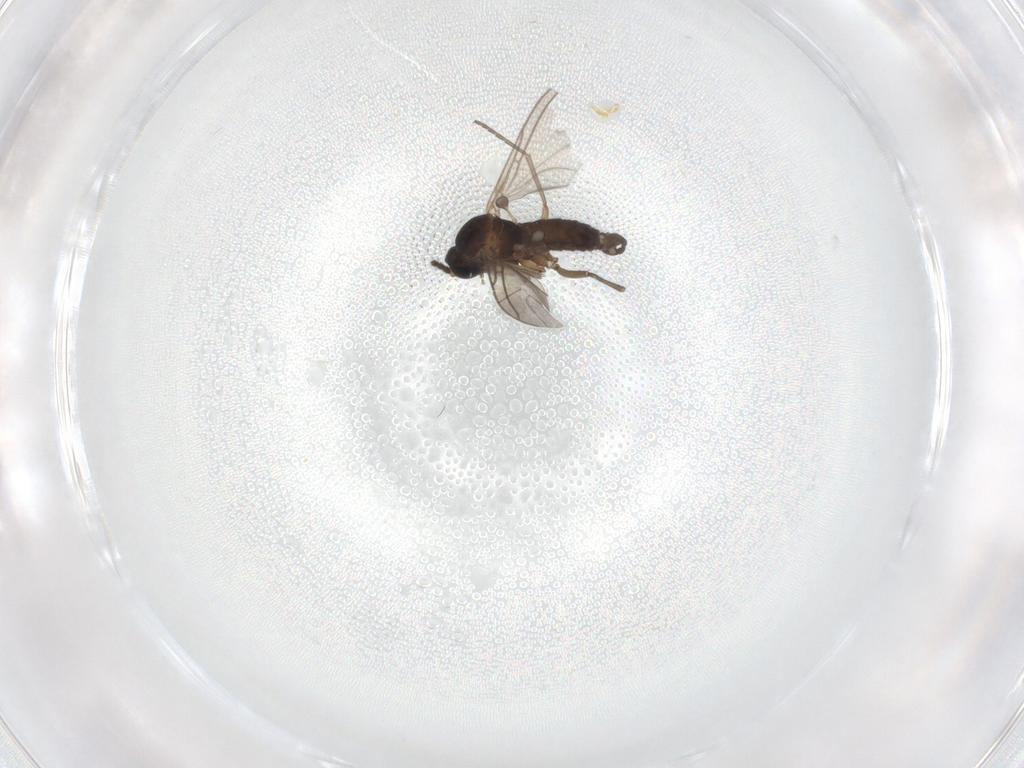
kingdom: Animalia
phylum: Arthropoda
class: Insecta
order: Diptera
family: Sciaridae
